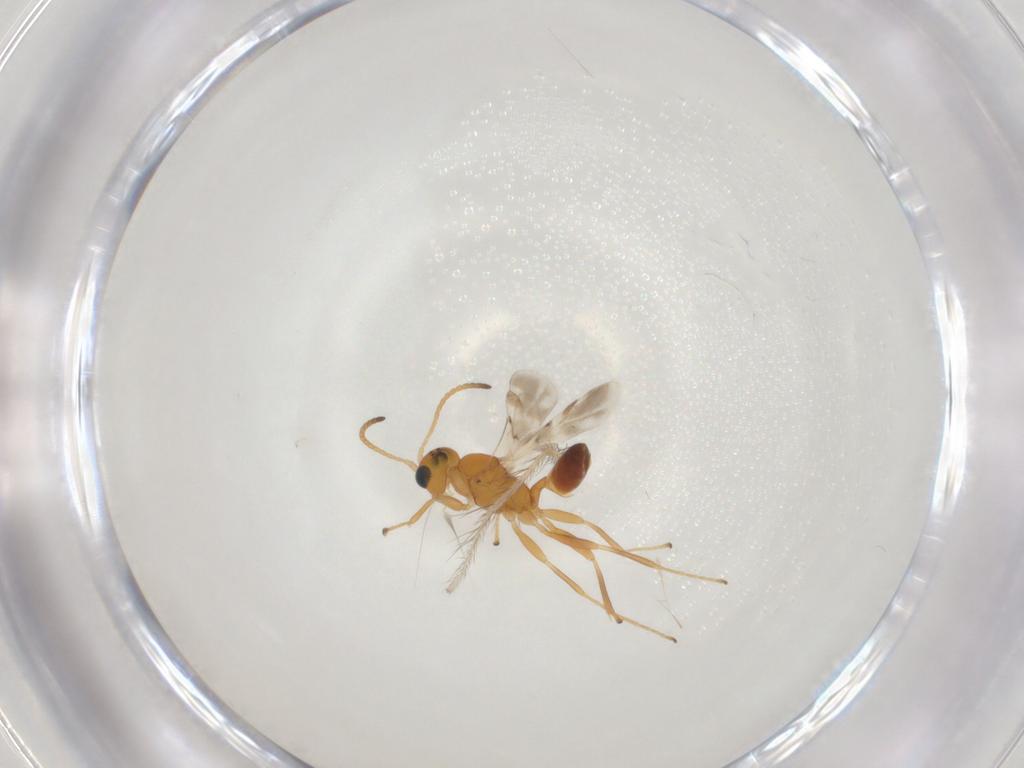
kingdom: Animalia
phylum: Arthropoda
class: Insecta
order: Hymenoptera
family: Braconidae
